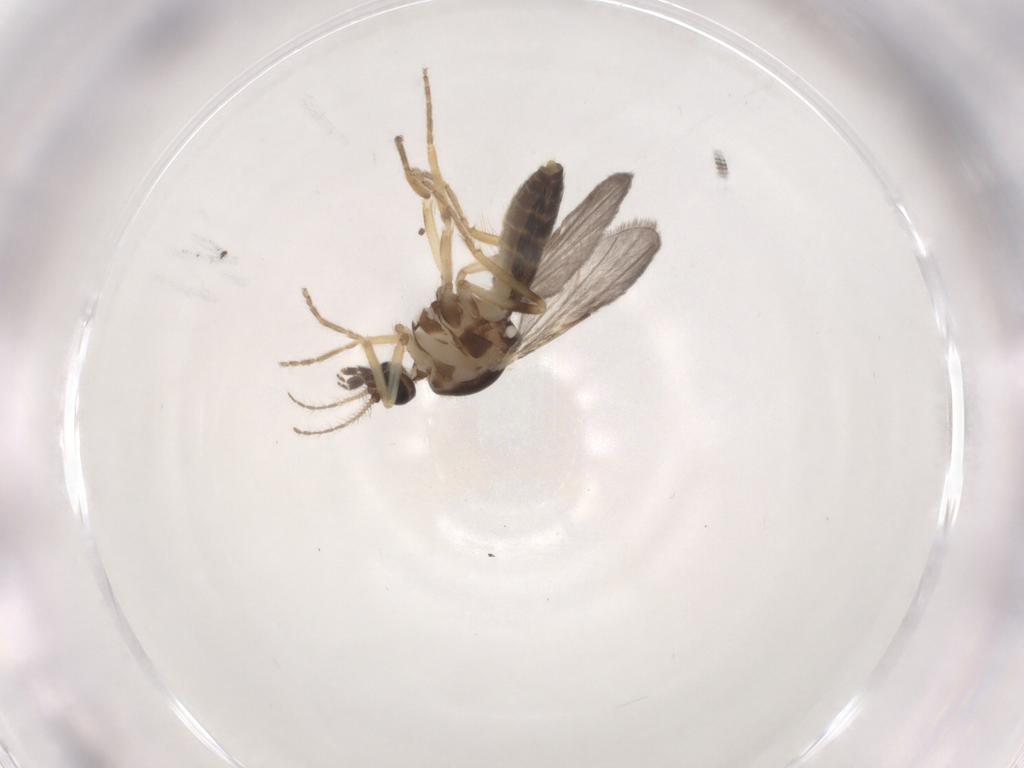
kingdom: Animalia
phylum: Arthropoda
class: Insecta
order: Diptera
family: Ceratopogonidae
